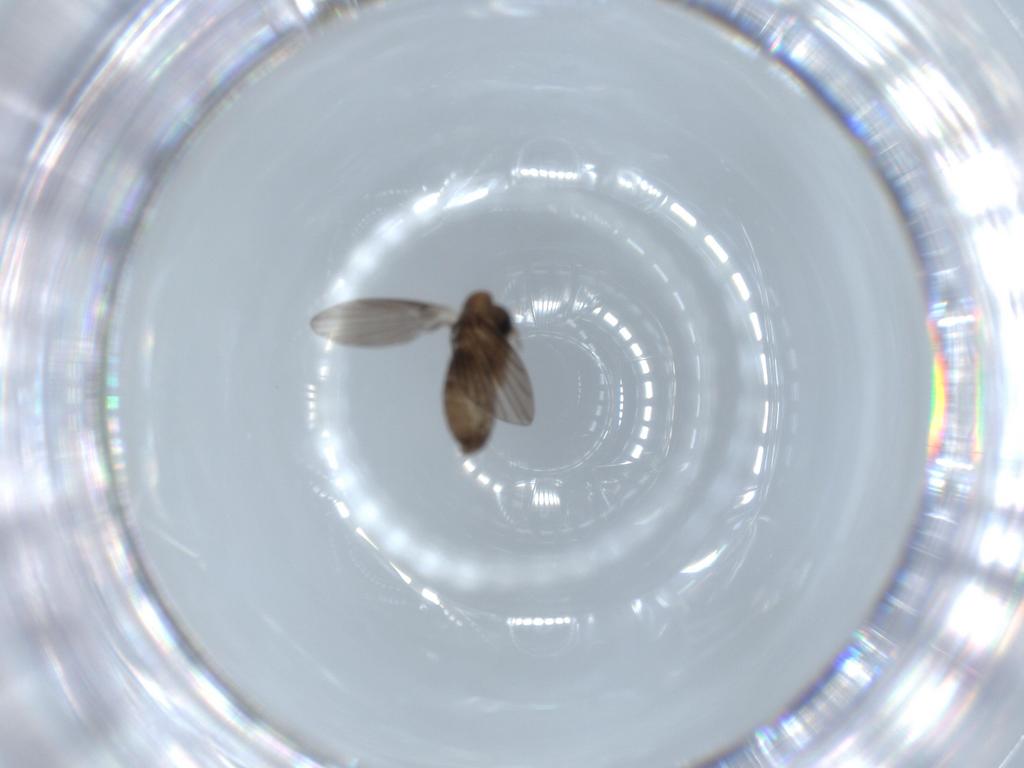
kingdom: Animalia
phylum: Arthropoda
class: Insecta
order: Diptera
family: Psychodidae
